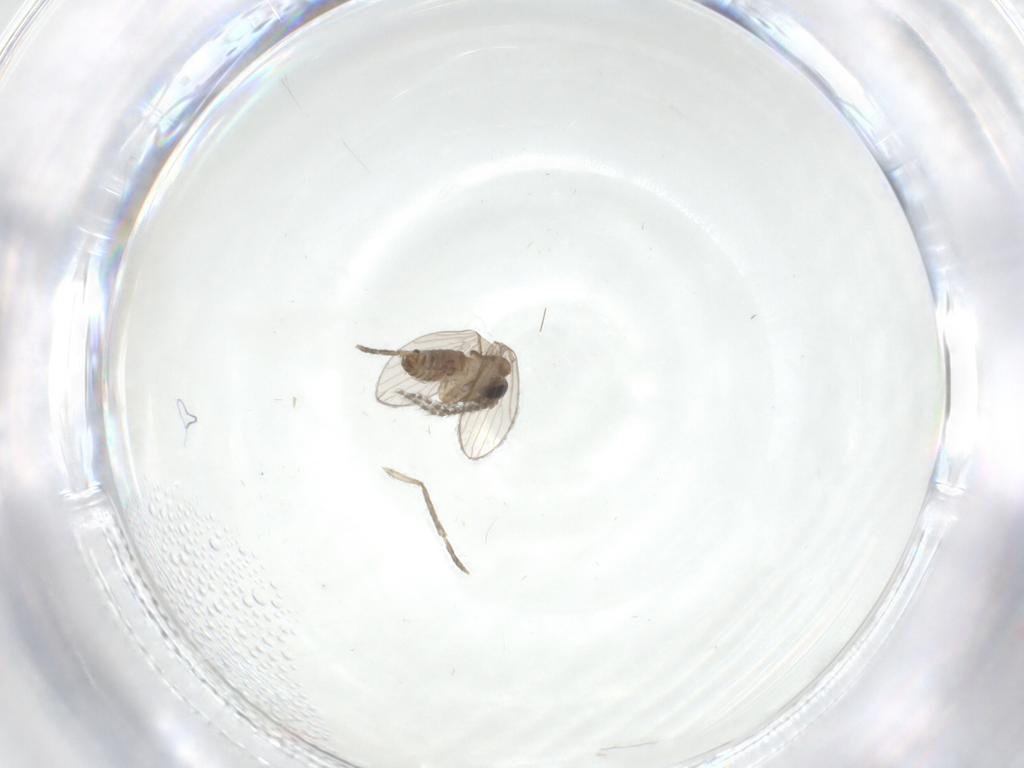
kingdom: Animalia
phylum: Arthropoda
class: Insecta
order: Diptera
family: Psychodidae
